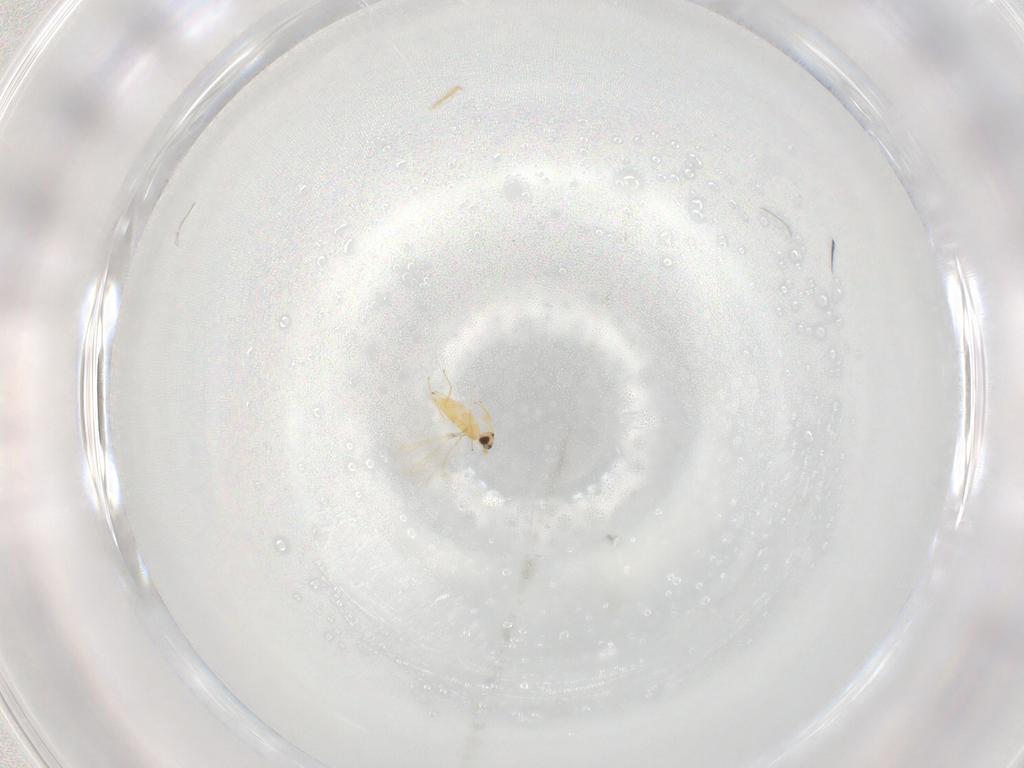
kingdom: Animalia
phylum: Arthropoda
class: Insecta
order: Hymenoptera
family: Mymaridae
